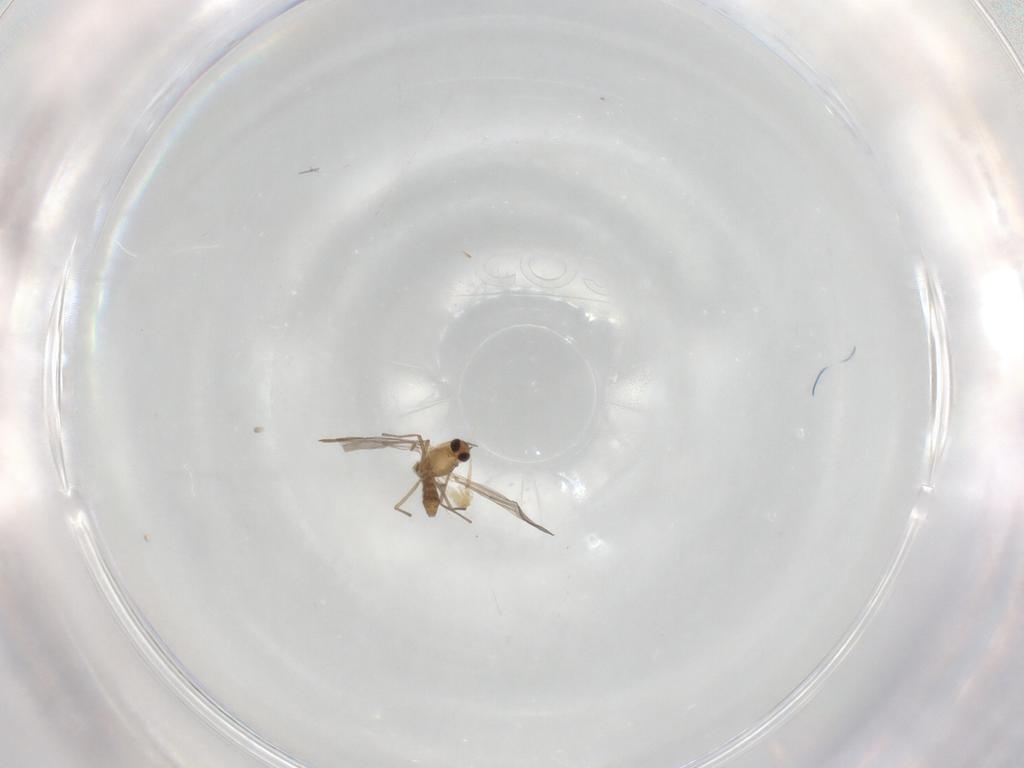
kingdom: Animalia
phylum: Arthropoda
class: Insecta
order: Diptera
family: Chironomidae
